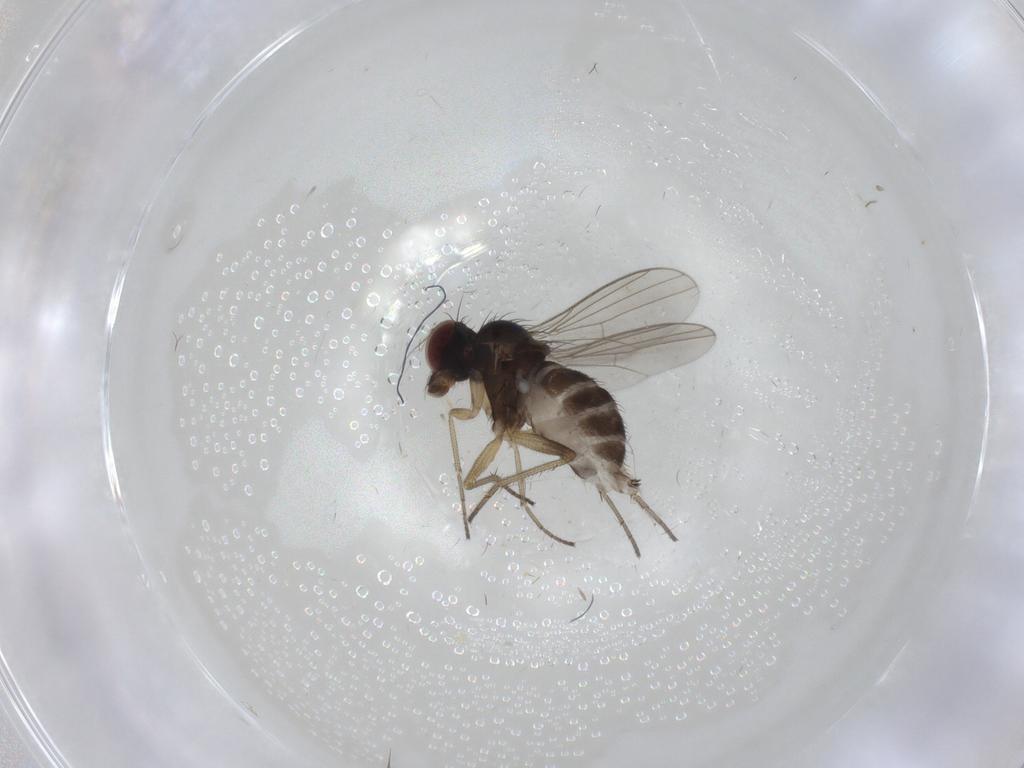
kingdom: Animalia
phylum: Arthropoda
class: Insecta
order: Diptera
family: Dolichopodidae
